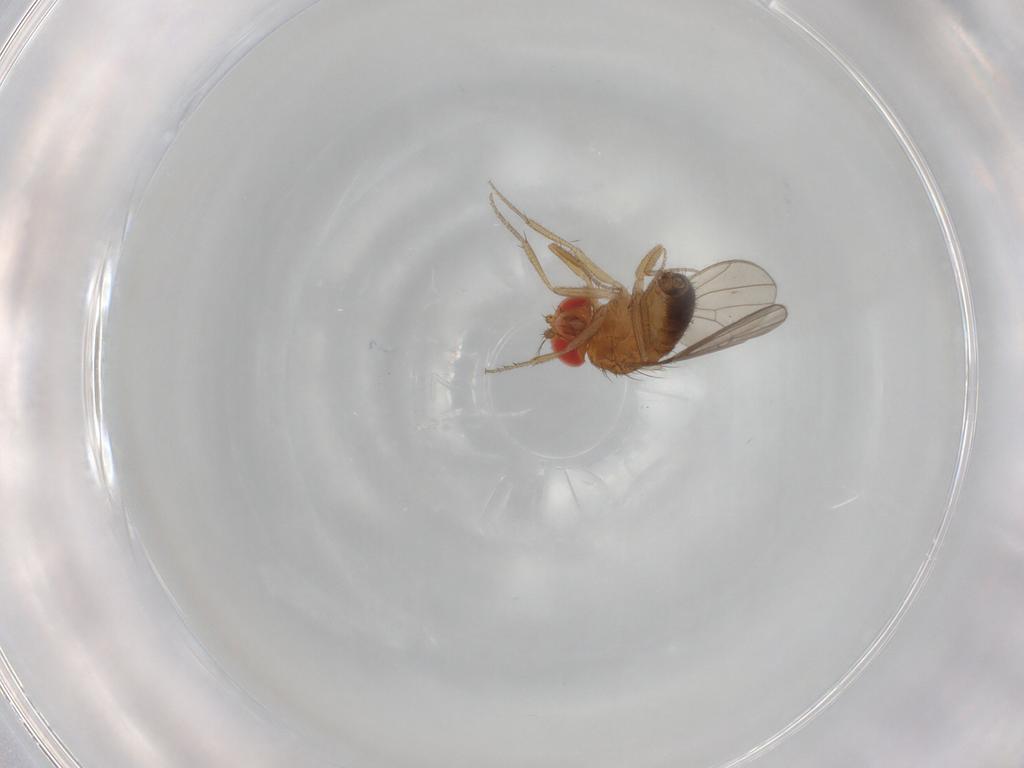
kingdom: Animalia
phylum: Arthropoda
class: Insecta
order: Diptera
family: Drosophilidae
